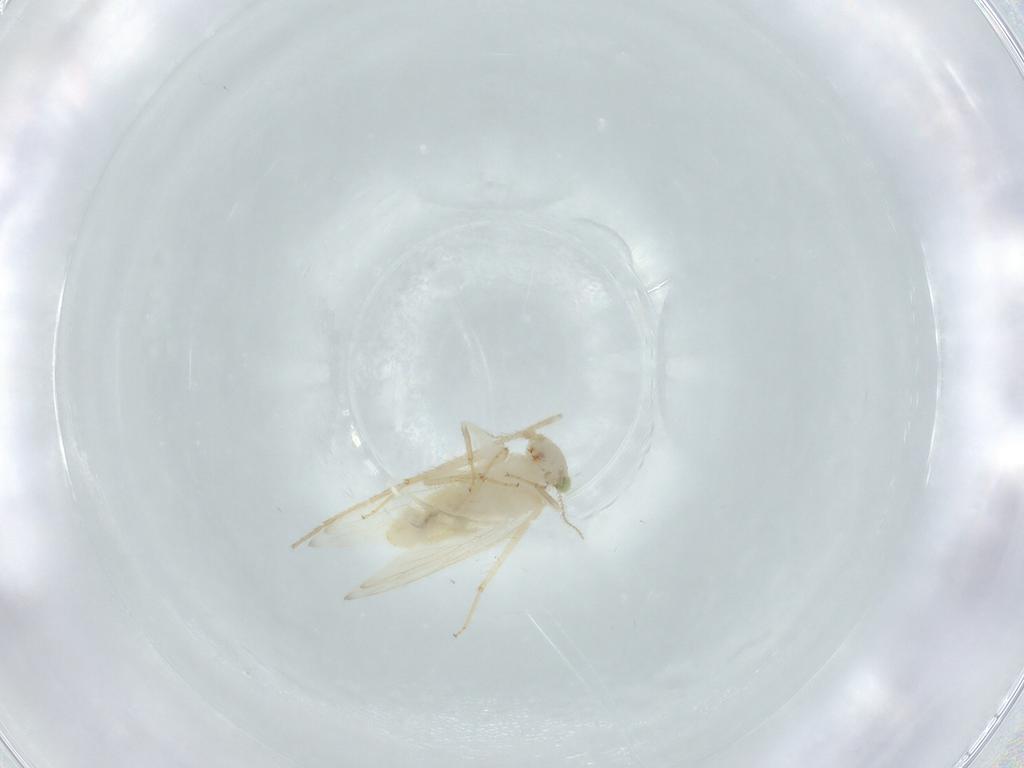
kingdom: Animalia
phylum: Arthropoda
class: Insecta
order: Psocodea
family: Lepidopsocidae
